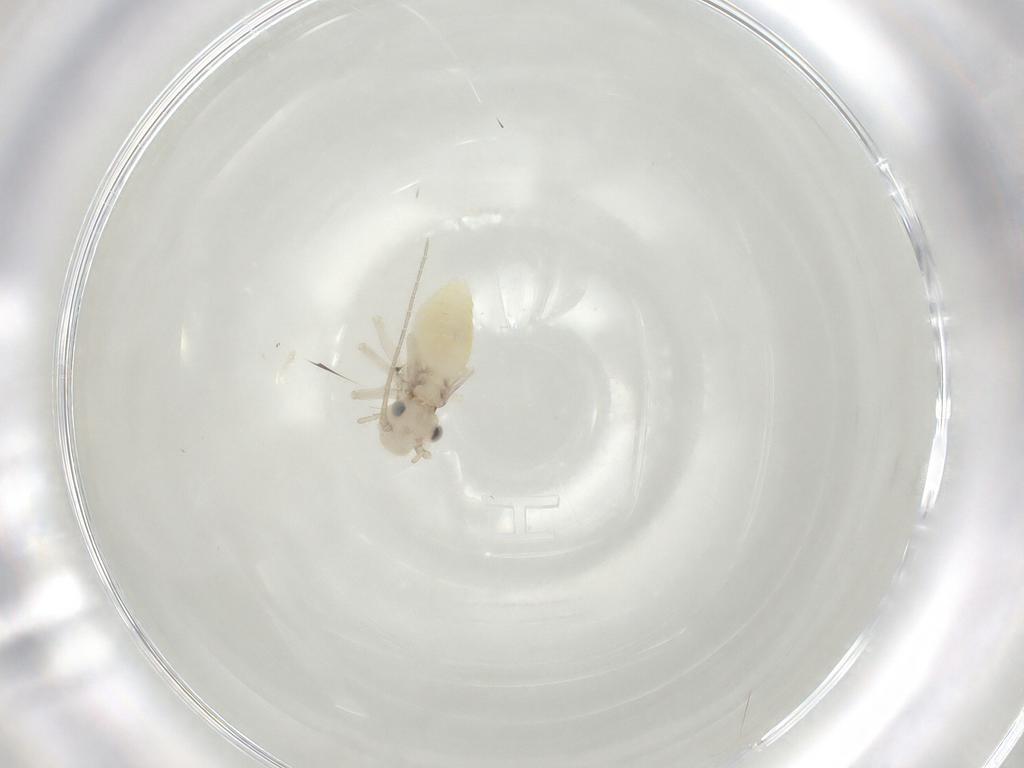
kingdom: Animalia
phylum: Arthropoda
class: Insecta
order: Psocodea
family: Caeciliusidae
